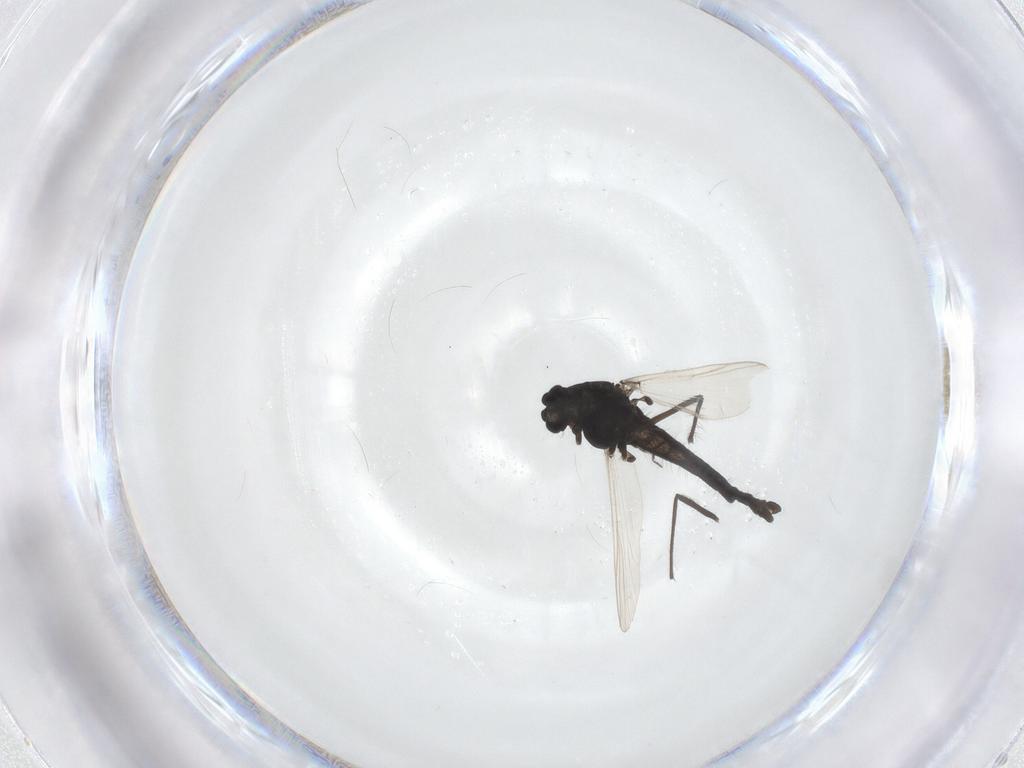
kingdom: Animalia
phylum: Arthropoda
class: Insecta
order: Diptera
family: Chironomidae
